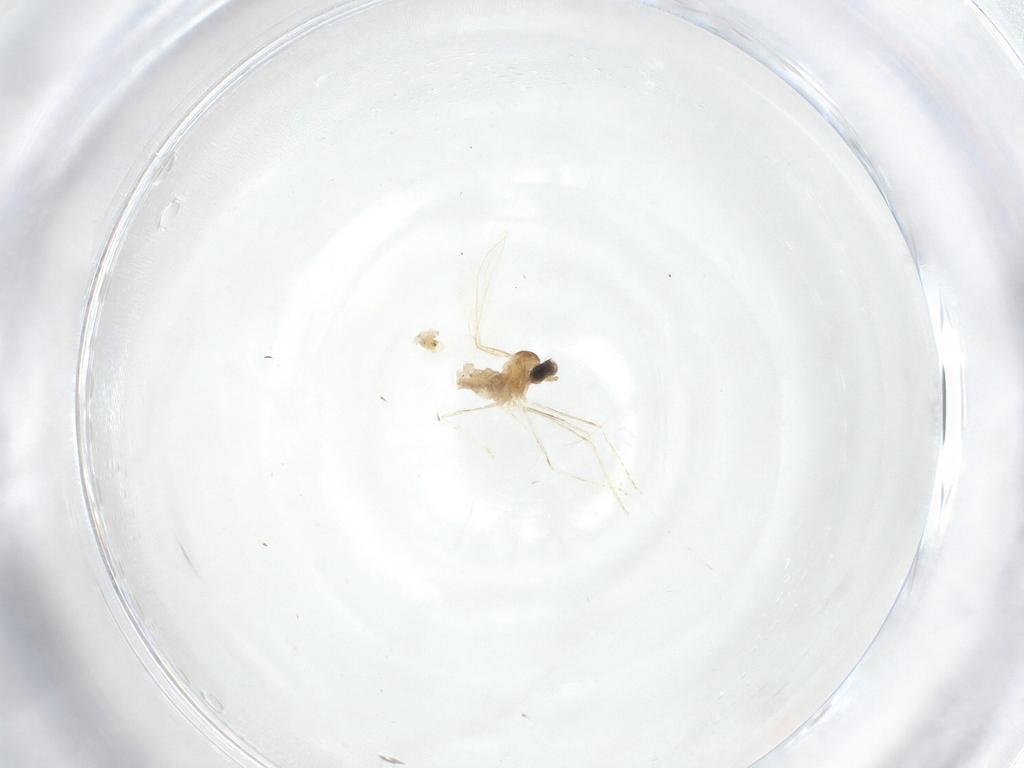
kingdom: Animalia
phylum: Arthropoda
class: Insecta
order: Diptera
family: Cecidomyiidae
